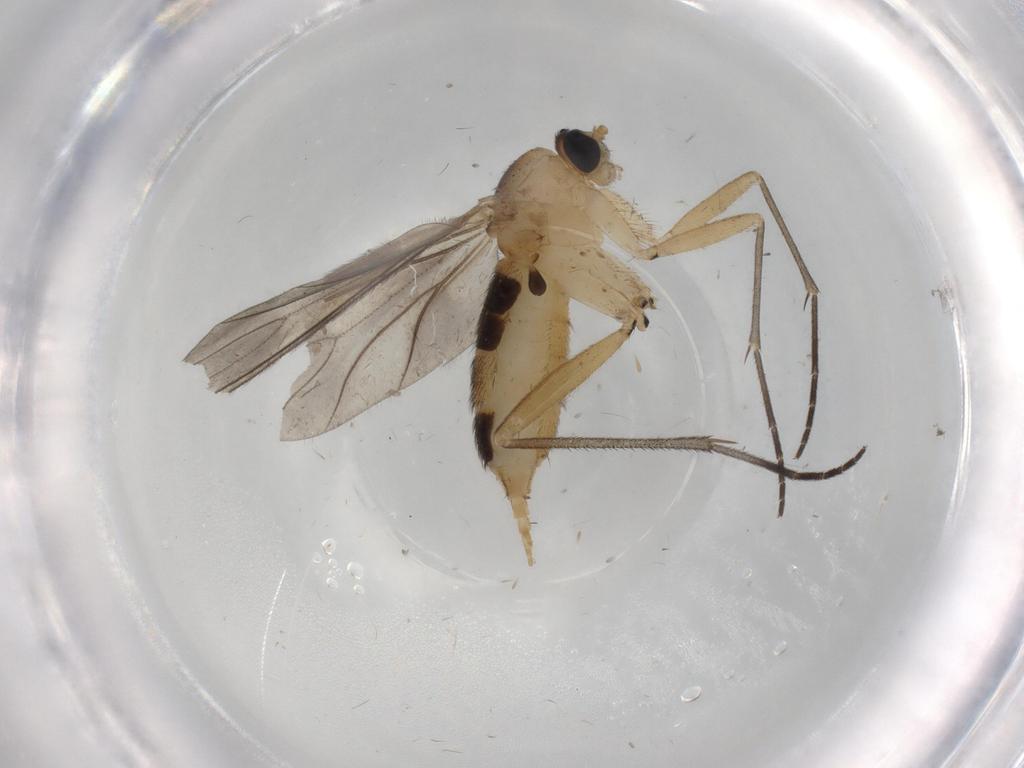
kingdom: Animalia
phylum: Arthropoda
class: Insecta
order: Diptera
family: Sciaridae
